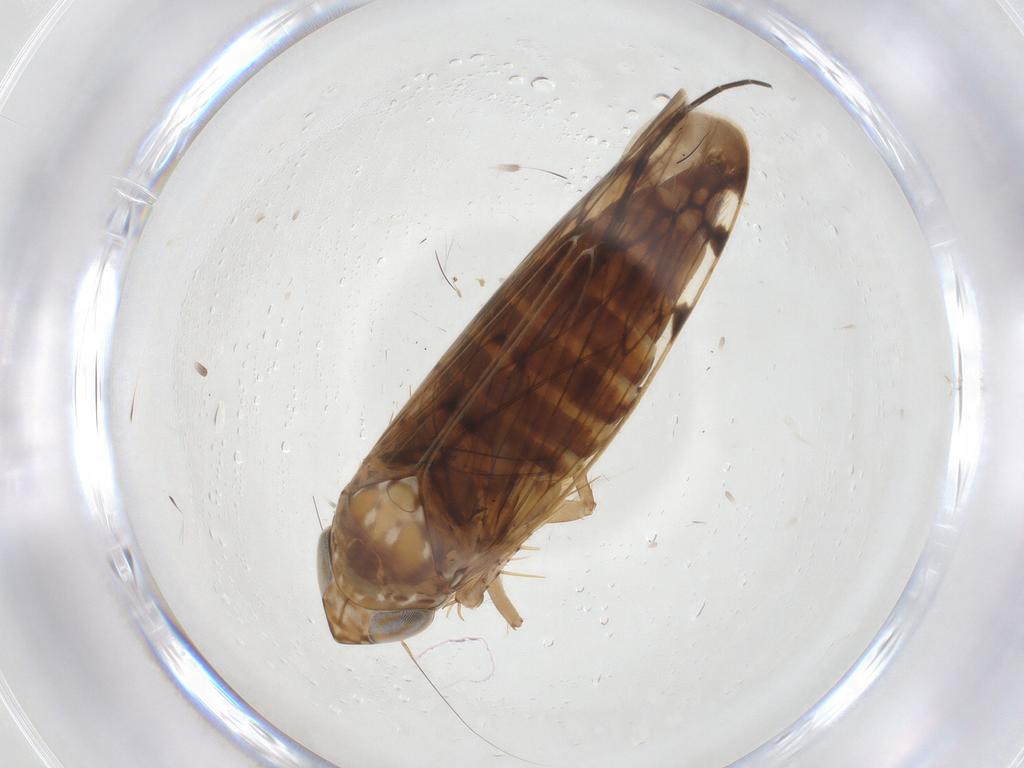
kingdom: Animalia
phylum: Arthropoda
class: Insecta
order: Hemiptera
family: Cicadellidae
